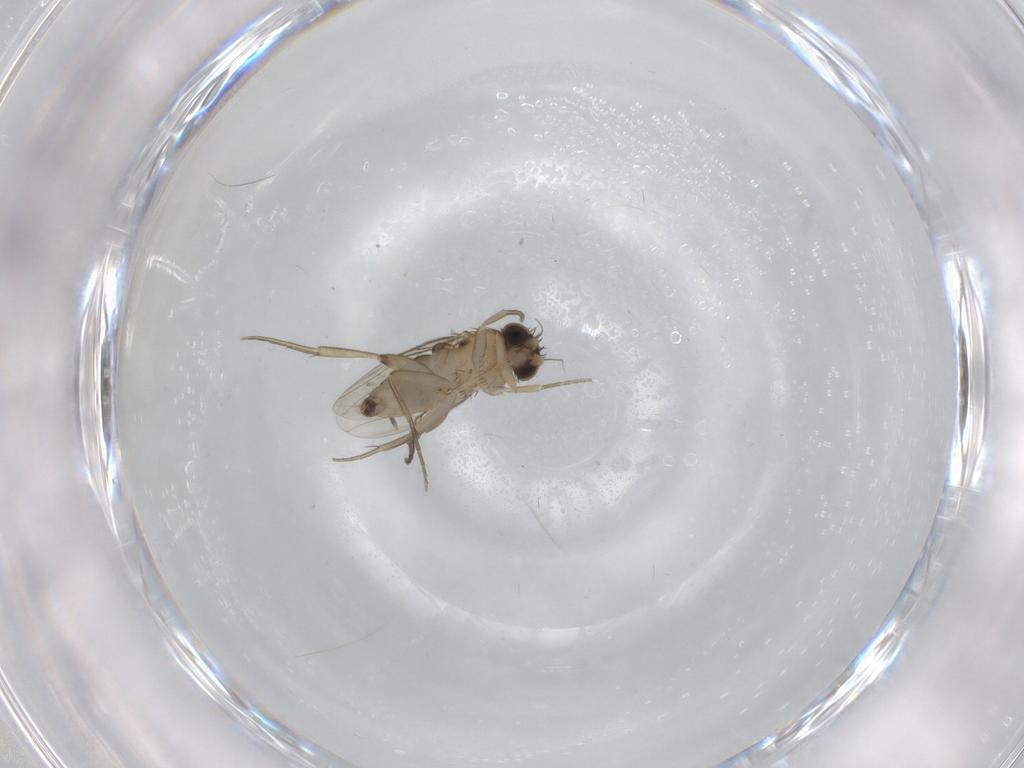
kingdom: Animalia
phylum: Arthropoda
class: Insecta
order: Diptera
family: Phoridae
